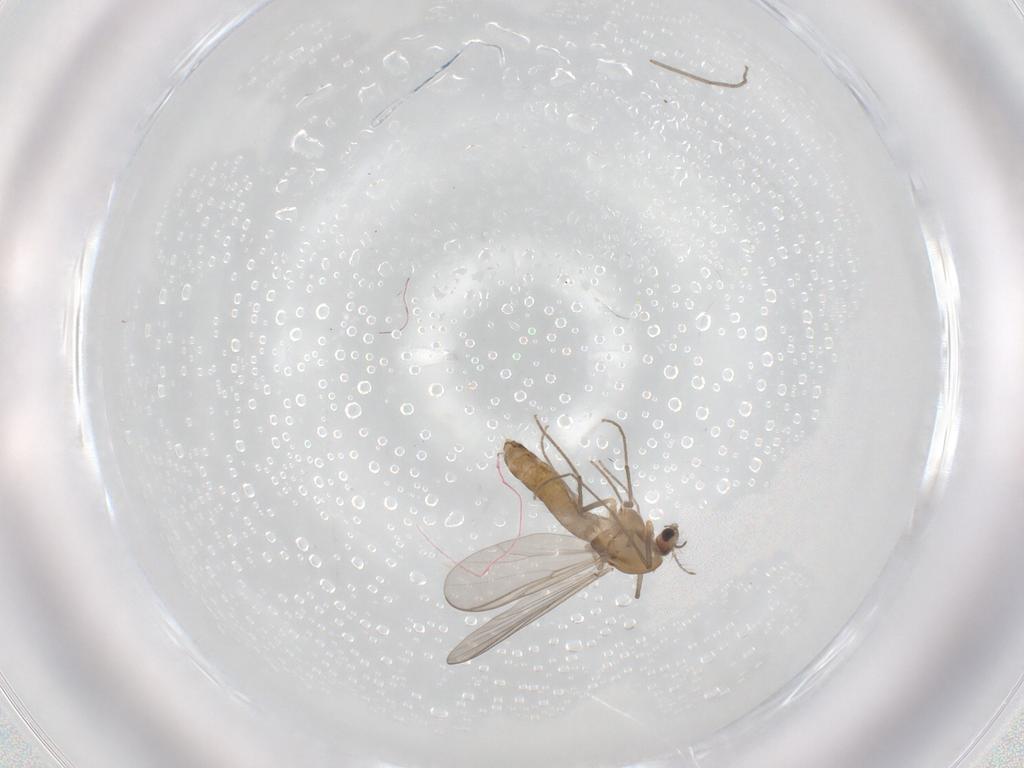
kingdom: Animalia
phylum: Arthropoda
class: Insecta
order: Diptera
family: Chironomidae
